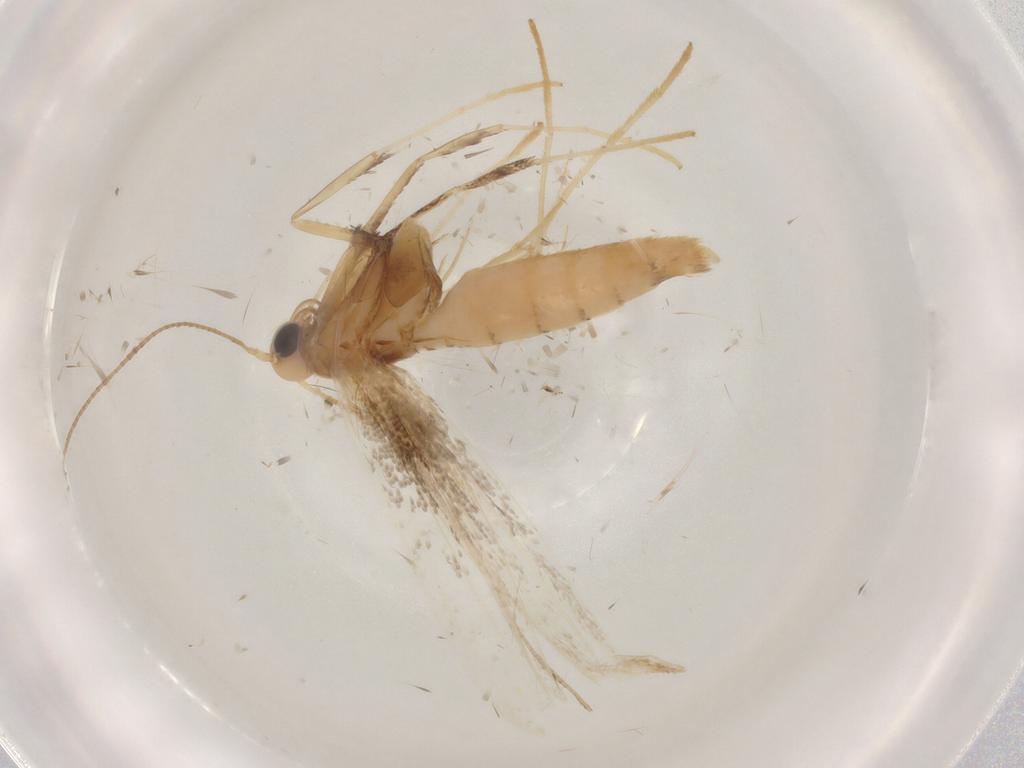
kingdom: Animalia
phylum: Arthropoda
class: Insecta
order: Lepidoptera
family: Gracillariidae
